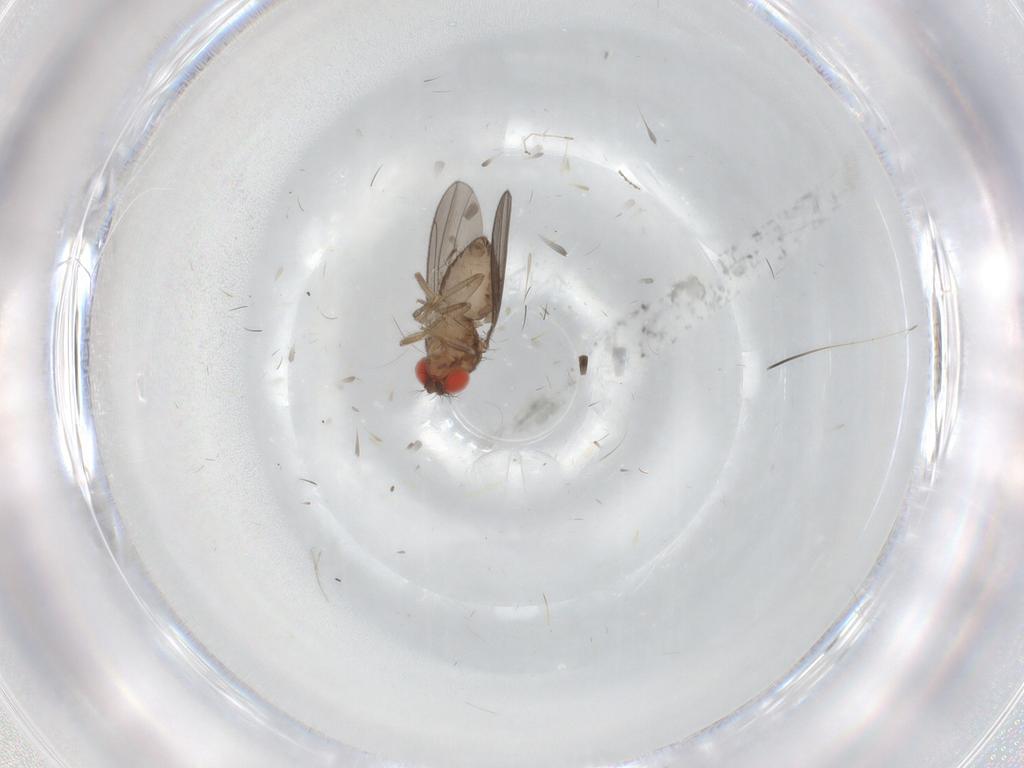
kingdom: Animalia
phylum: Arthropoda
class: Insecta
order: Diptera
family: Drosophilidae
